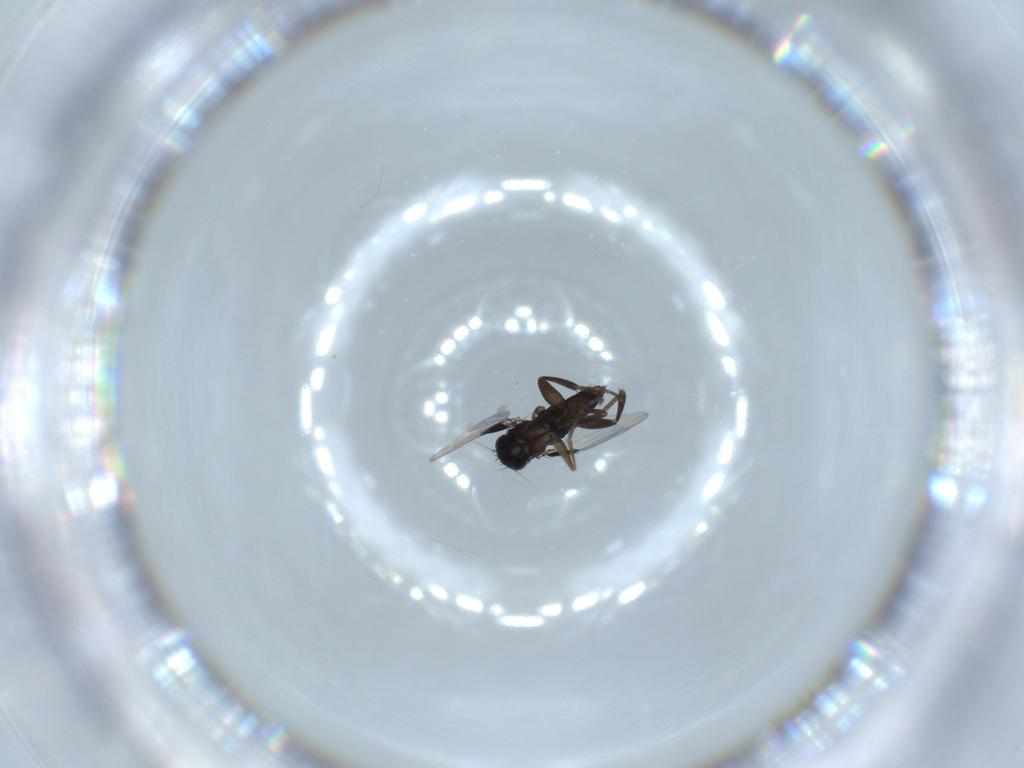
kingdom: Animalia
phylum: Arthropoda
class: Insecta
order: Diptera
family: Phoridae
